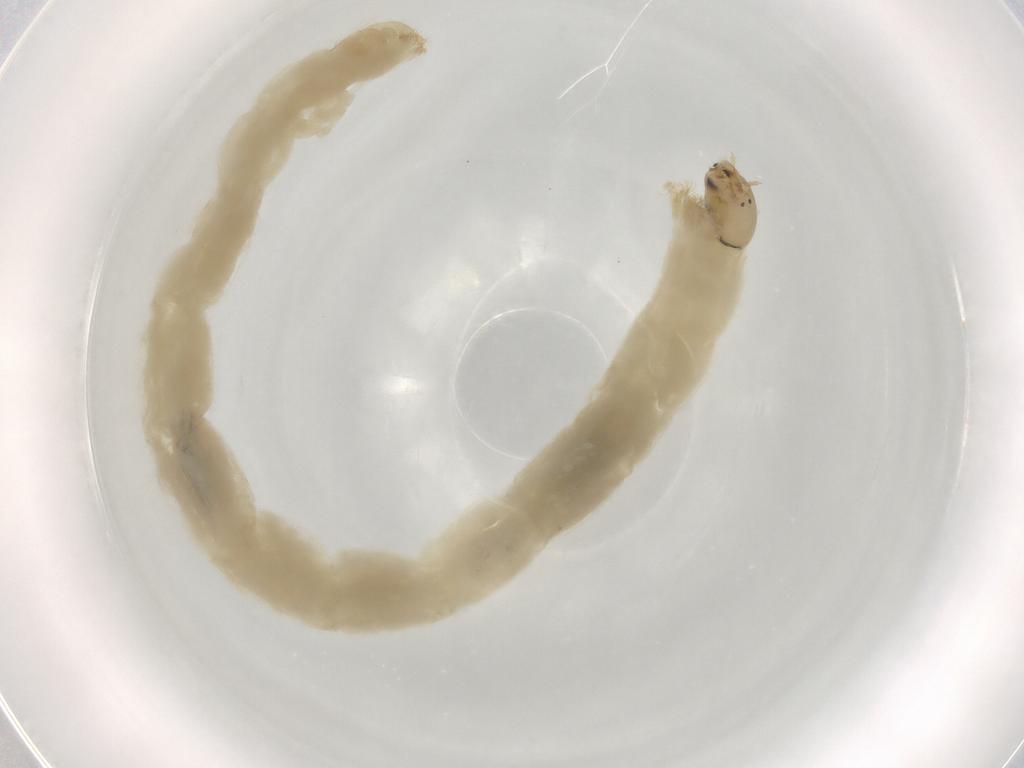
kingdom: Animalia
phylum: Arthropoda
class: Insecta
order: Diptera
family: Chironomidae
